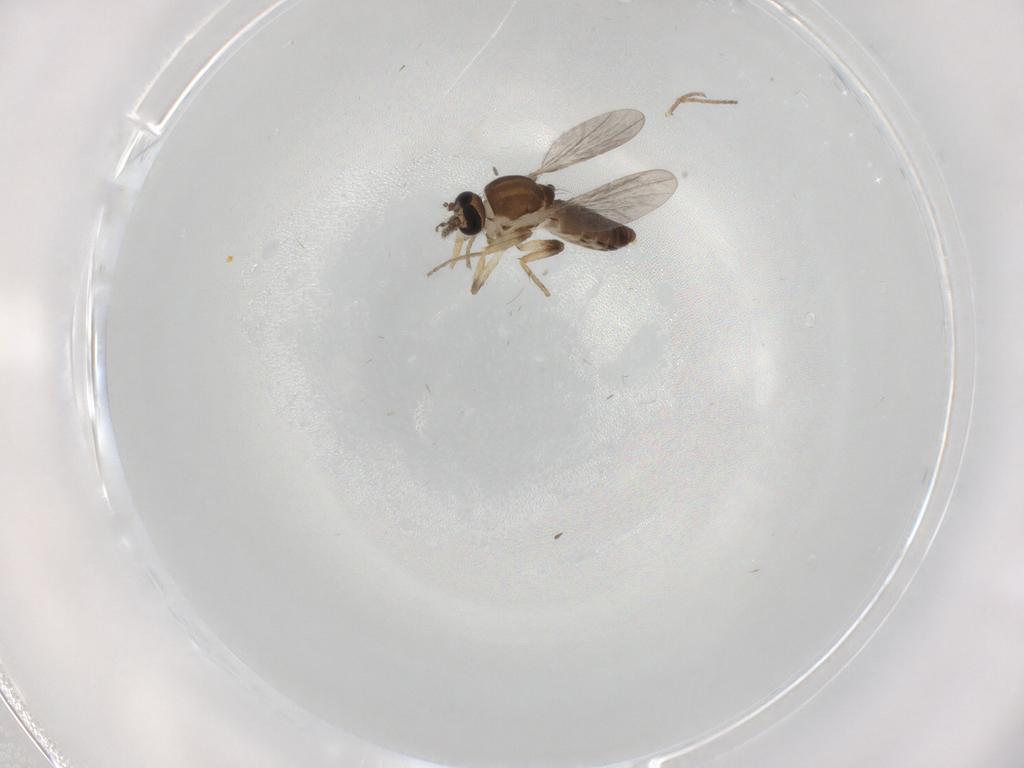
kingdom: Animalia
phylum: Arthropoda
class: Insecta
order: Diptera
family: Ceratopogonidae
